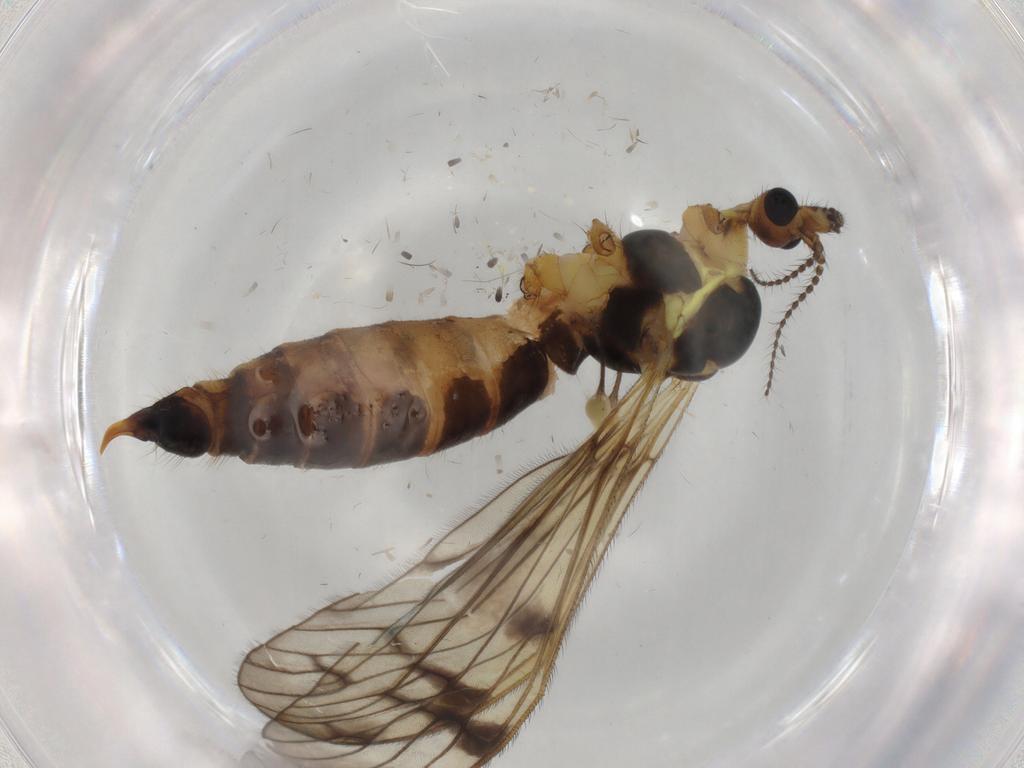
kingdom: Animalia
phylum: Arthropoda
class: Insecta
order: Diptera
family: Limoniidae
